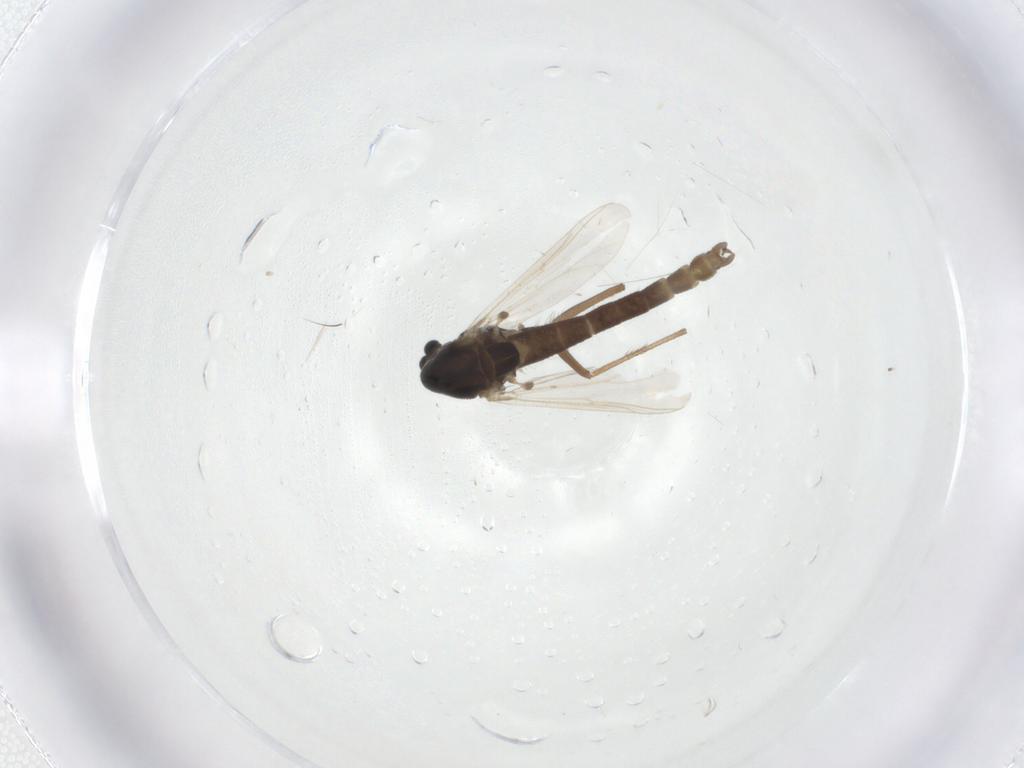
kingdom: Animalia
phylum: Arthropoda
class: Insecta
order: Diptera
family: Chironomidae
